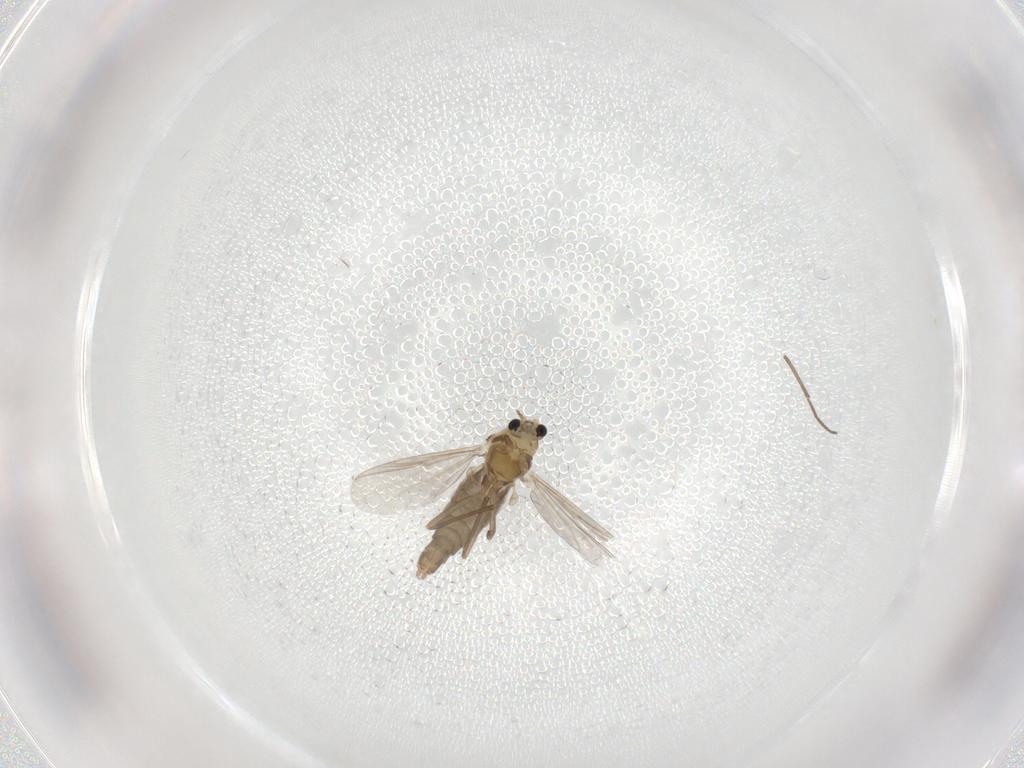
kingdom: Animalia
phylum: Arthropoda
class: Insecta
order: Diptera
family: Chironomidae
